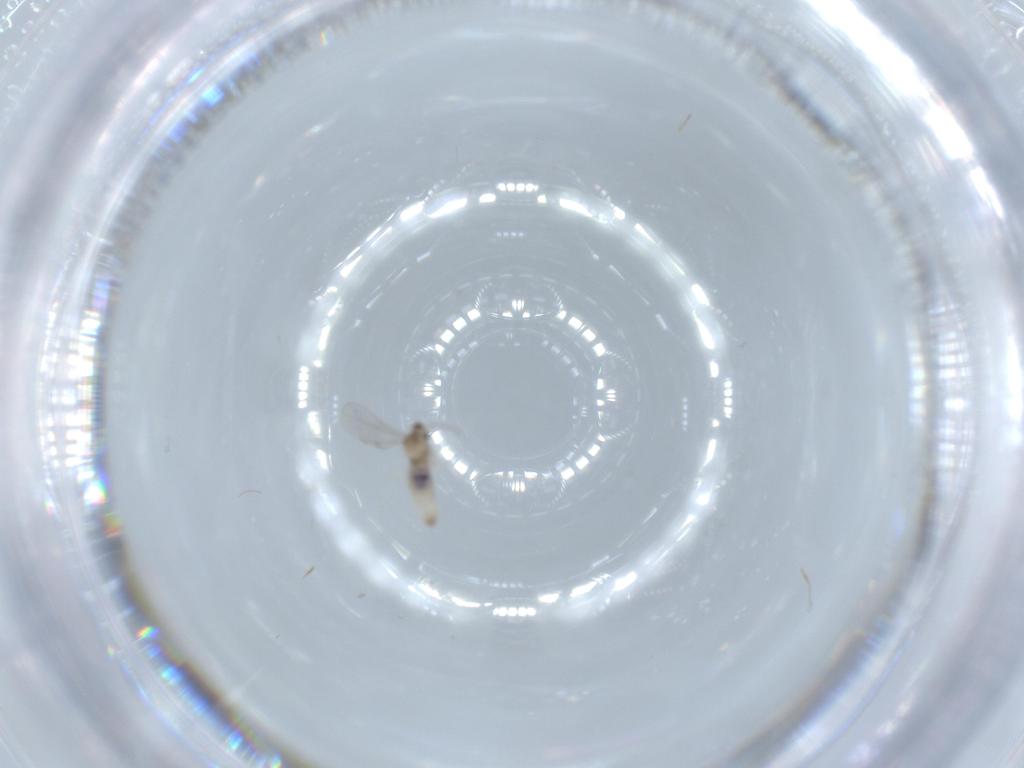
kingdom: Animalia
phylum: Arthropoda
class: Insecta
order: Diptera
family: Cecidomyiidae
